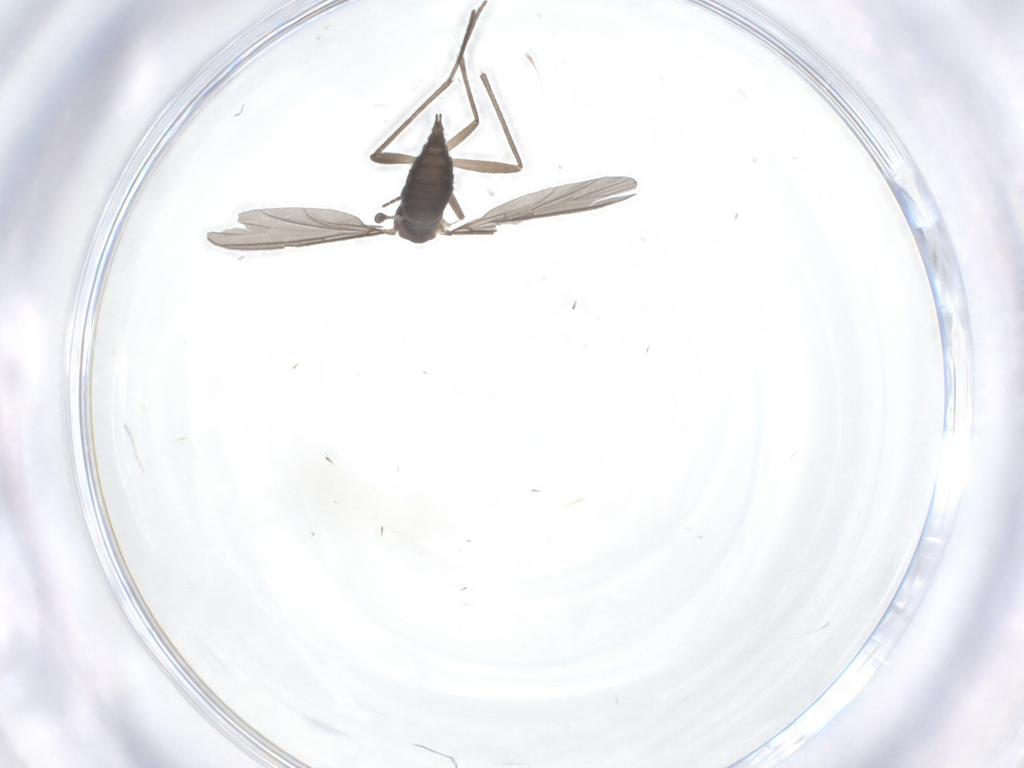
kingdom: Animalia
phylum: Arthropoda
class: Insecta
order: Diptera
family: Sciaridae
